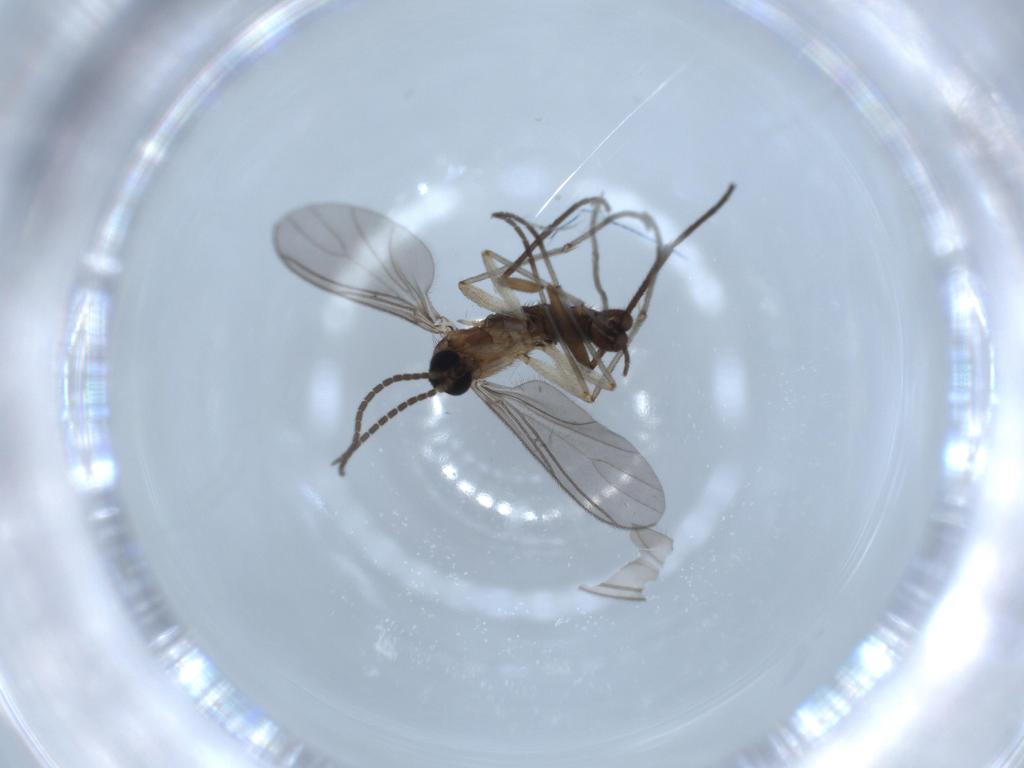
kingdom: Animalia
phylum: Arthropoda
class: Insecta
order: Diptera
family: Sciaridae
